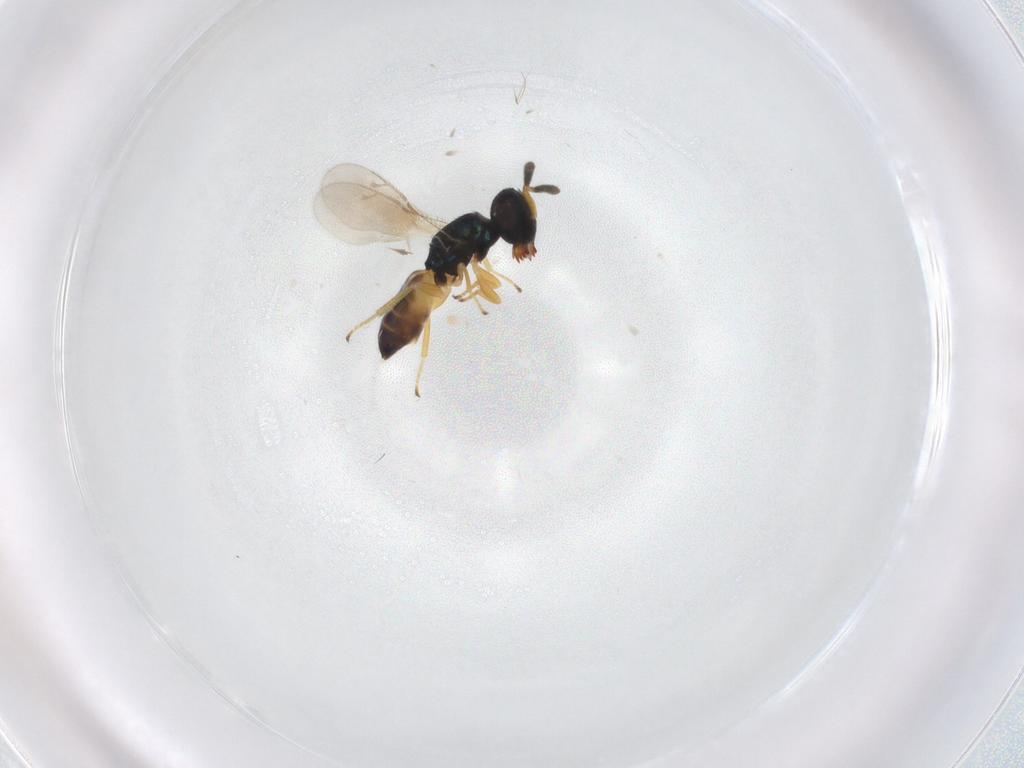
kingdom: Animalia
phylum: Arthropoda
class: Insecta
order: Hymenoptera
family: Pteromalidae
